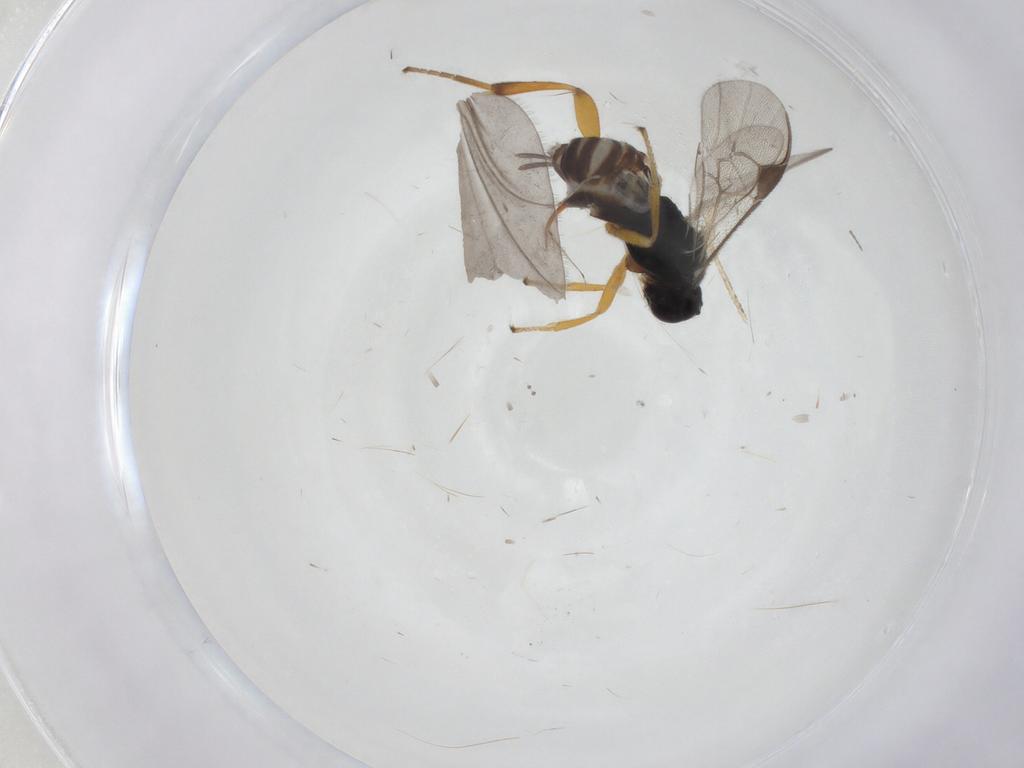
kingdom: Animalia
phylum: Arthropoda
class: Insecta
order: Hymenoptera
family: Braconidae
